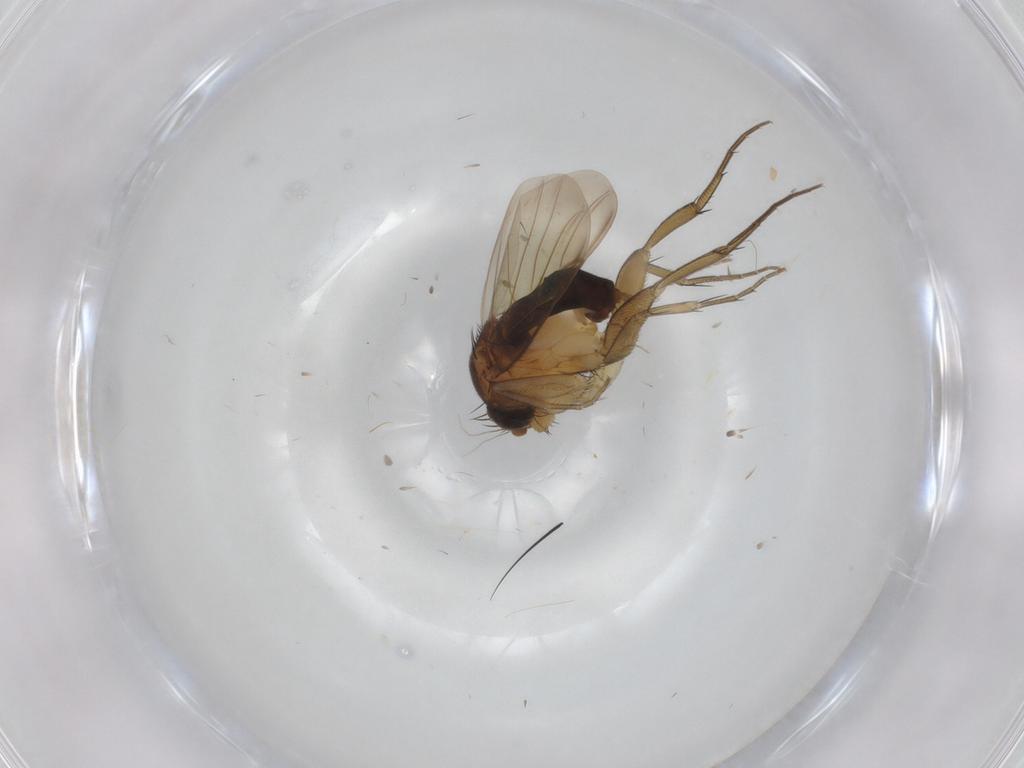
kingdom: Animalia
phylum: Arthropoda
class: Insecta
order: Diptera
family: Phoridae
